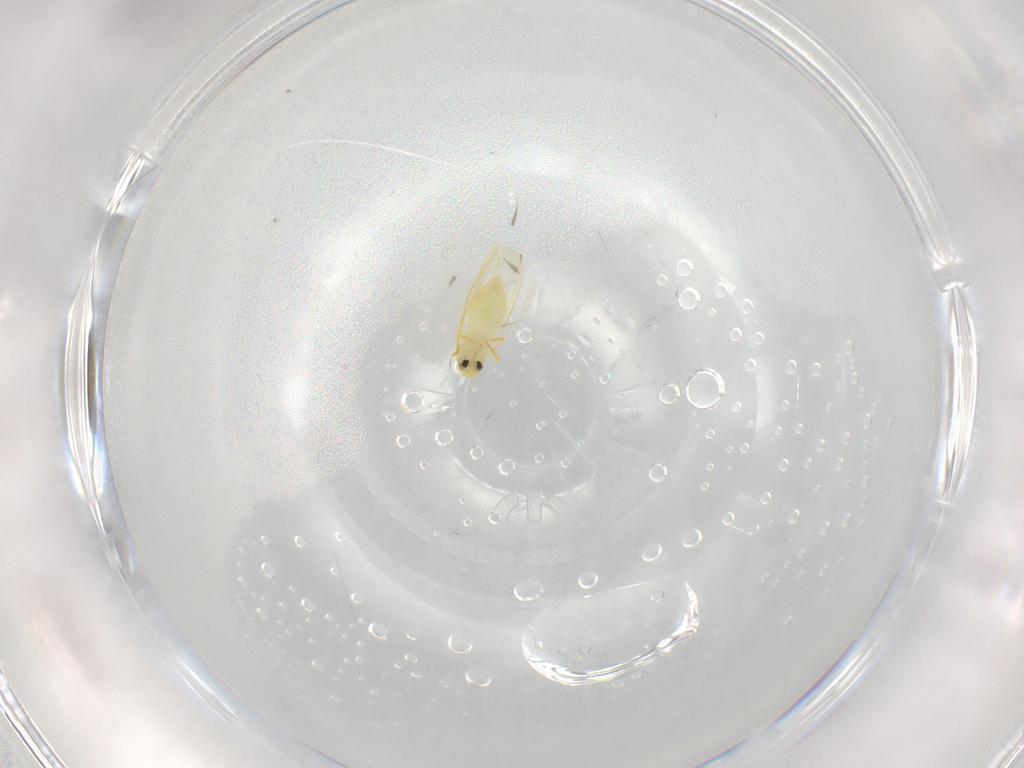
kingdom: Animalia
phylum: Arthropoda
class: Insecta
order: Hemiptera
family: Aleyrodidae
